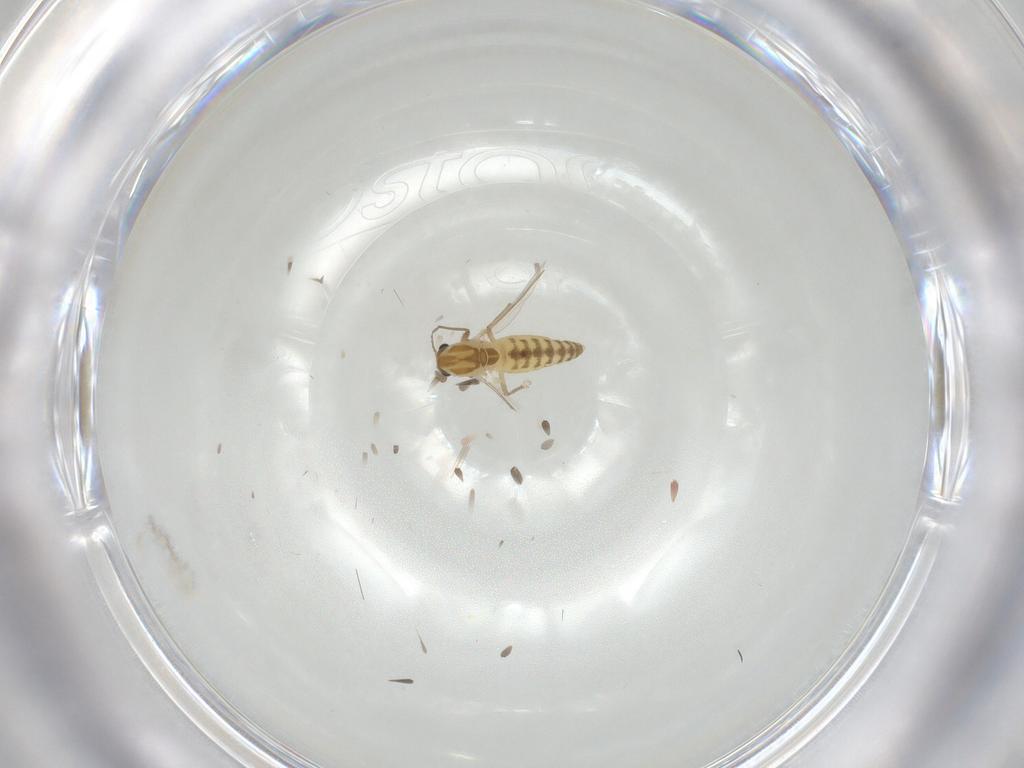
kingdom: Animalia
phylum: Arthropoda
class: Insecta
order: Diptera
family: Chironomidae
